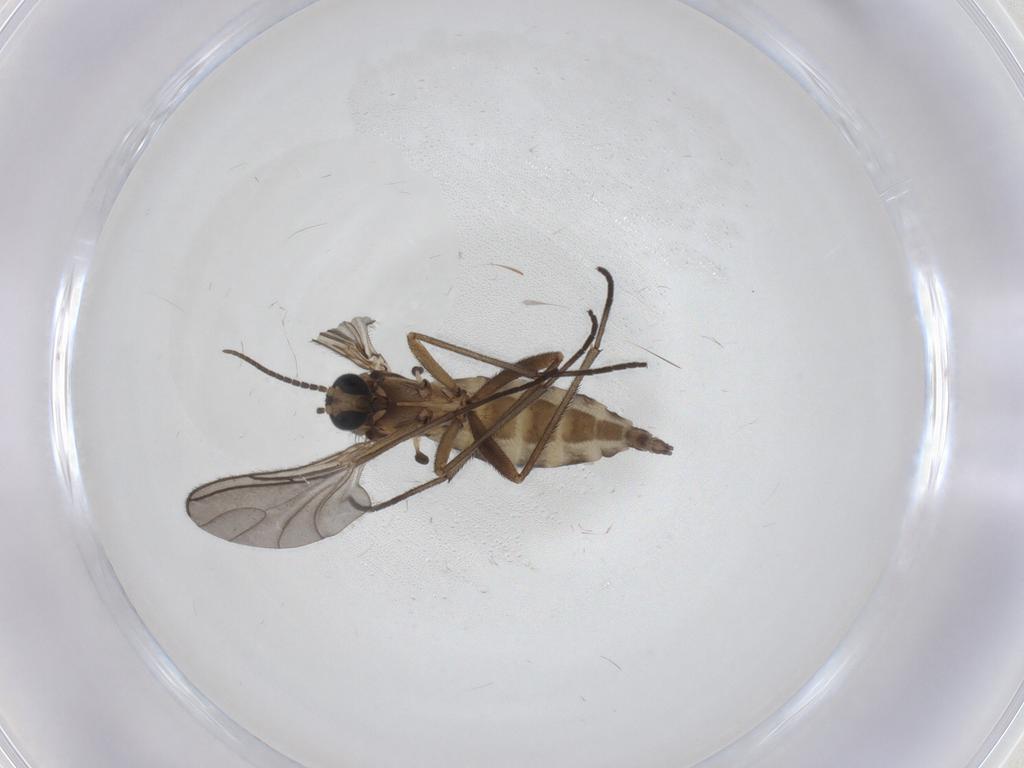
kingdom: Animalia
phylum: Arthropoda
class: Insecta
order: Diptera
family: Sciaridae
